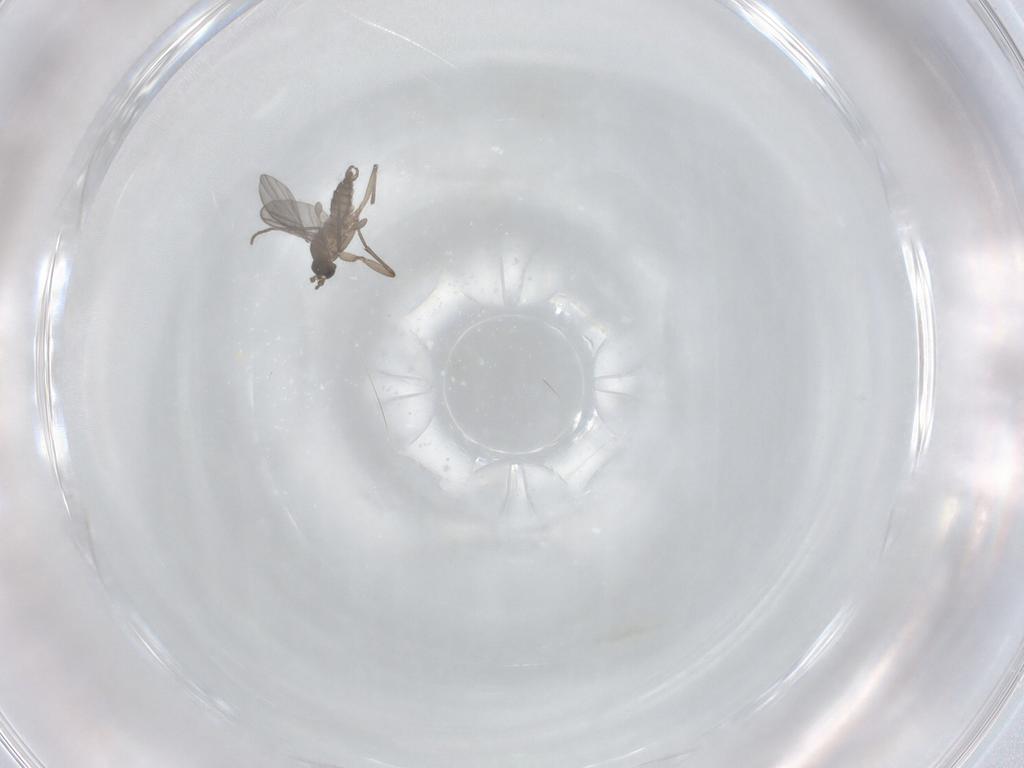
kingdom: Animalia
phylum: Arthropoda
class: Insecta
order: Diptera
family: Sciaridae
